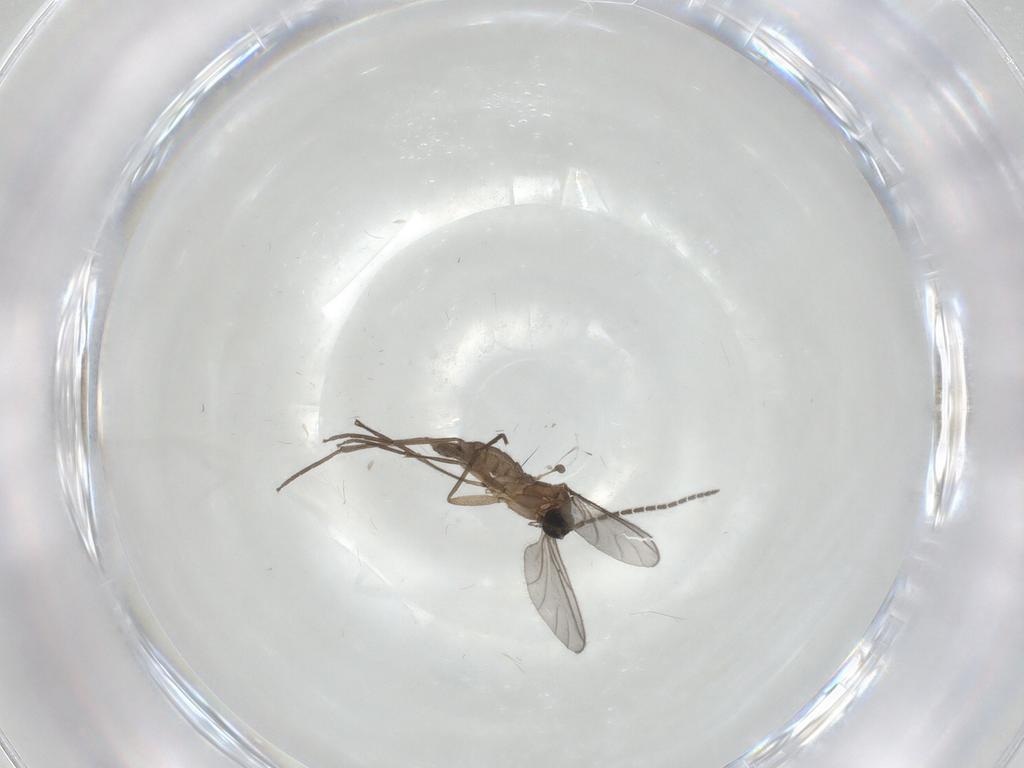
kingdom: Animalia
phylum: Arthropoda
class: Insecta
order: Diptera
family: Sciaridae
